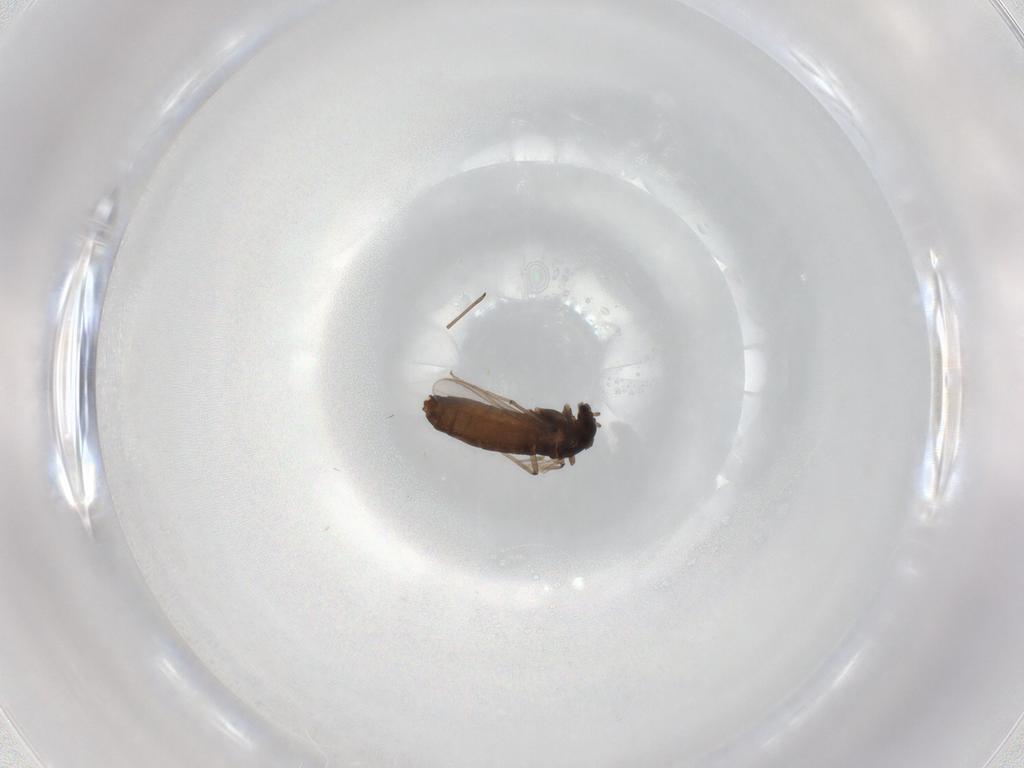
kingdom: Animalia
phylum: Arthropoda
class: Insecta
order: Diptera
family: Chironomidae
